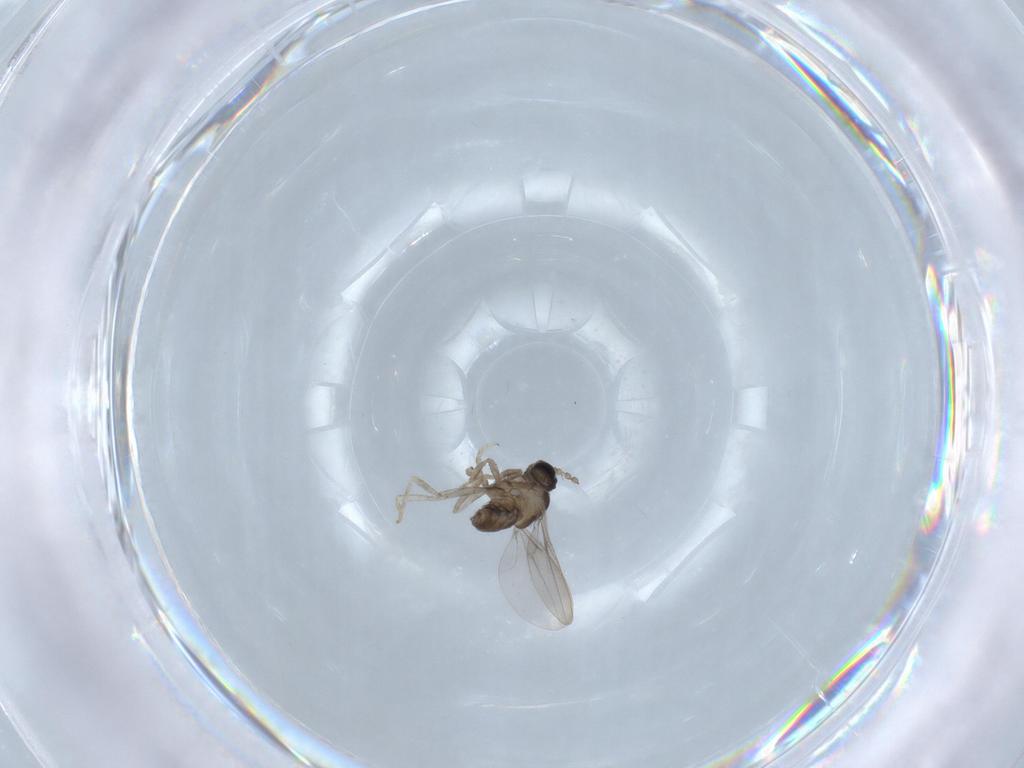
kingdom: Animalia
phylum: Arthropoda
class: Insecta
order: Diptera
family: Cecidomyiidae
